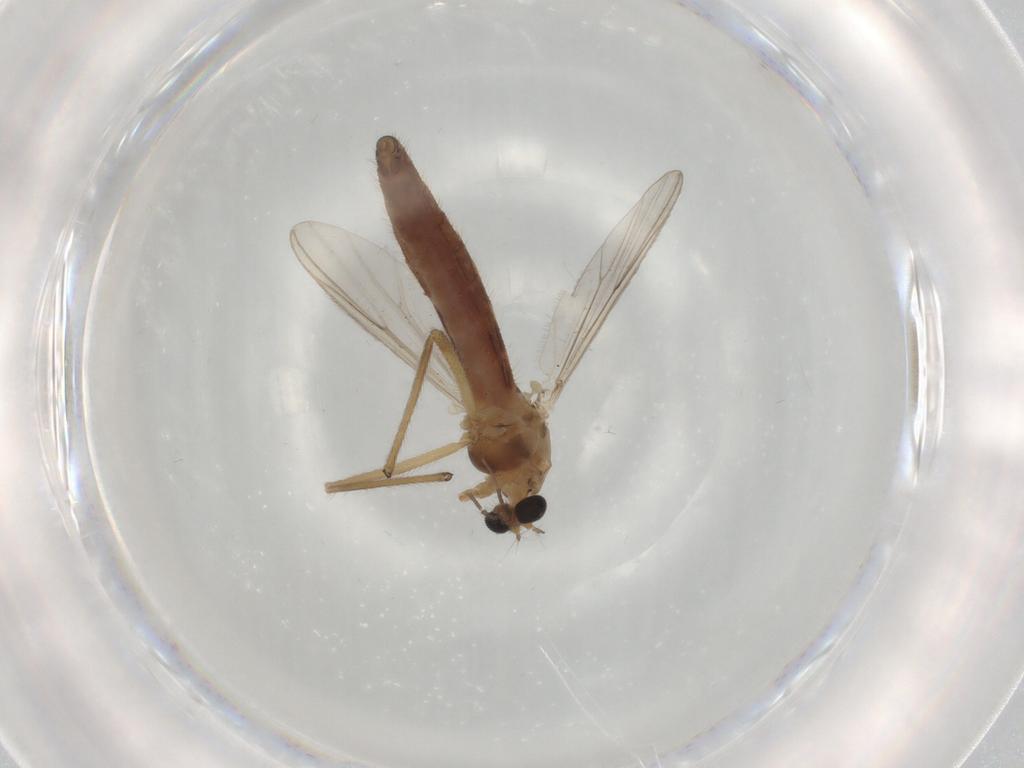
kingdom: Animalia
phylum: Arthropoda
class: Insecta
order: Diptera
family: Chironomidae
